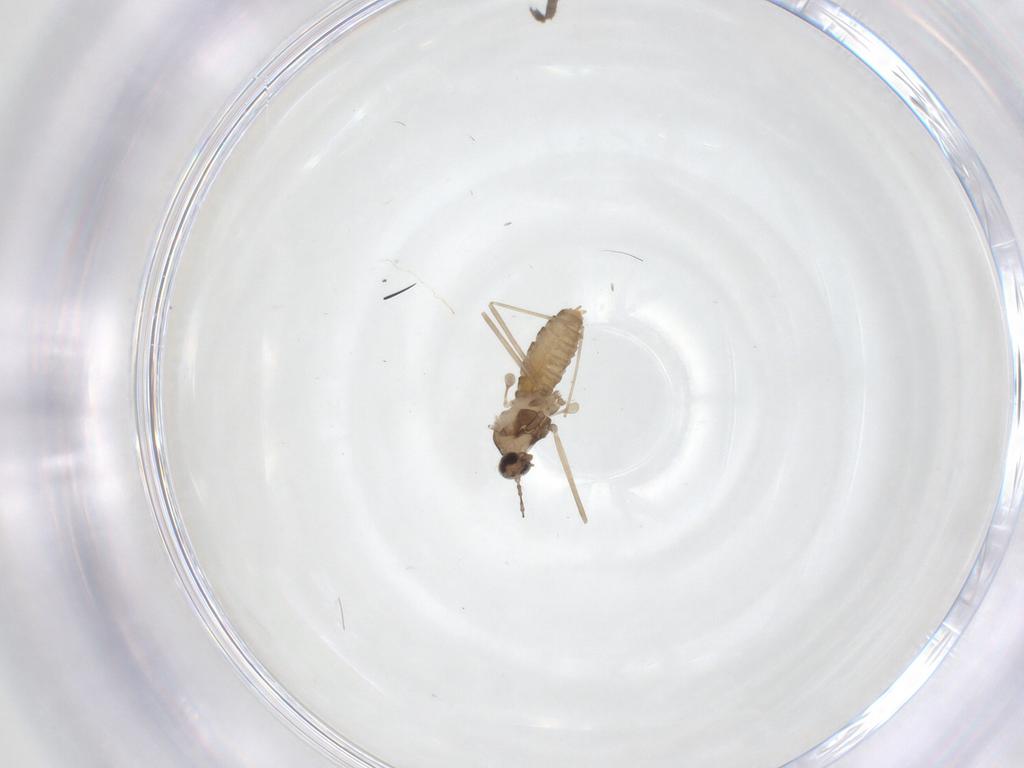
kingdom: Animalia
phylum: Arthropoda
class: Insecta
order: Diptera
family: Cecidomyiidae
